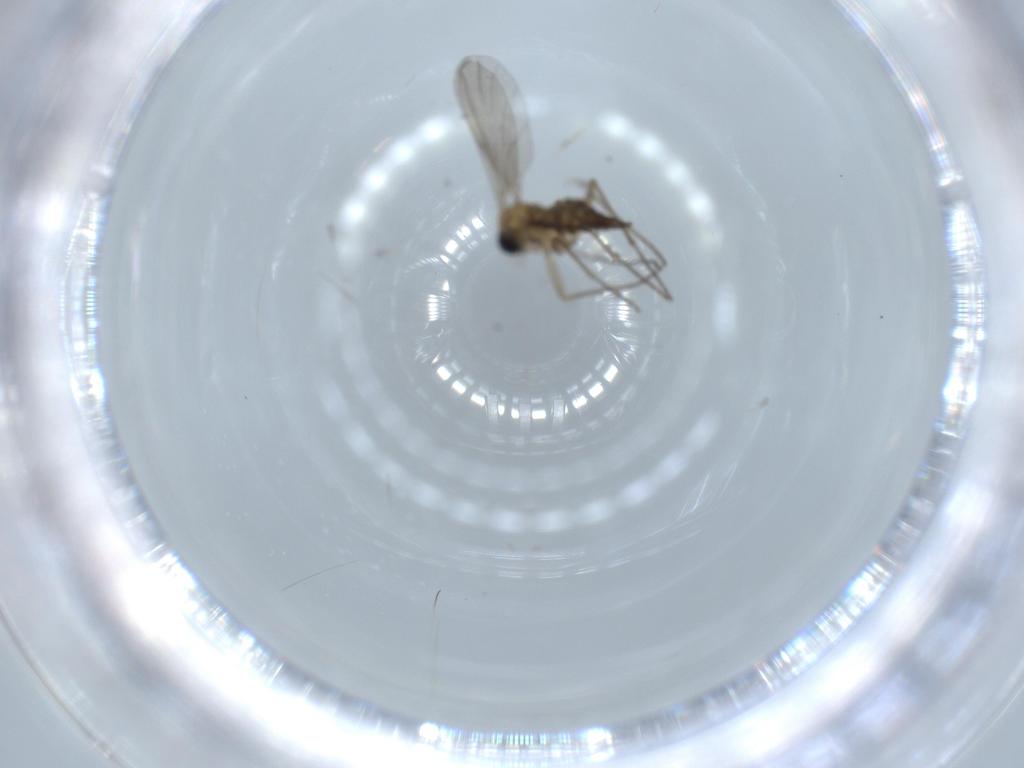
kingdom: Animalia
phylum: Arthropoda
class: Insecta
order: Diptera
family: Sciaridae
